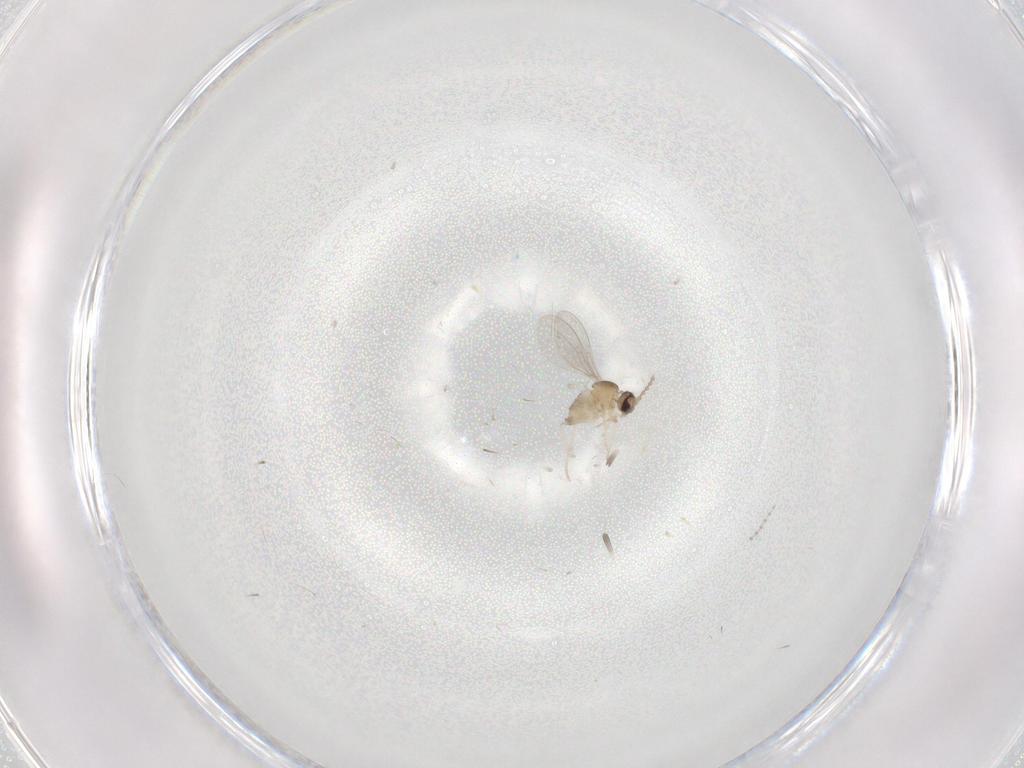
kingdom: Animalia
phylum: Arthropoda
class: Insecta
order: Diptera
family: Cecidomyiidae
